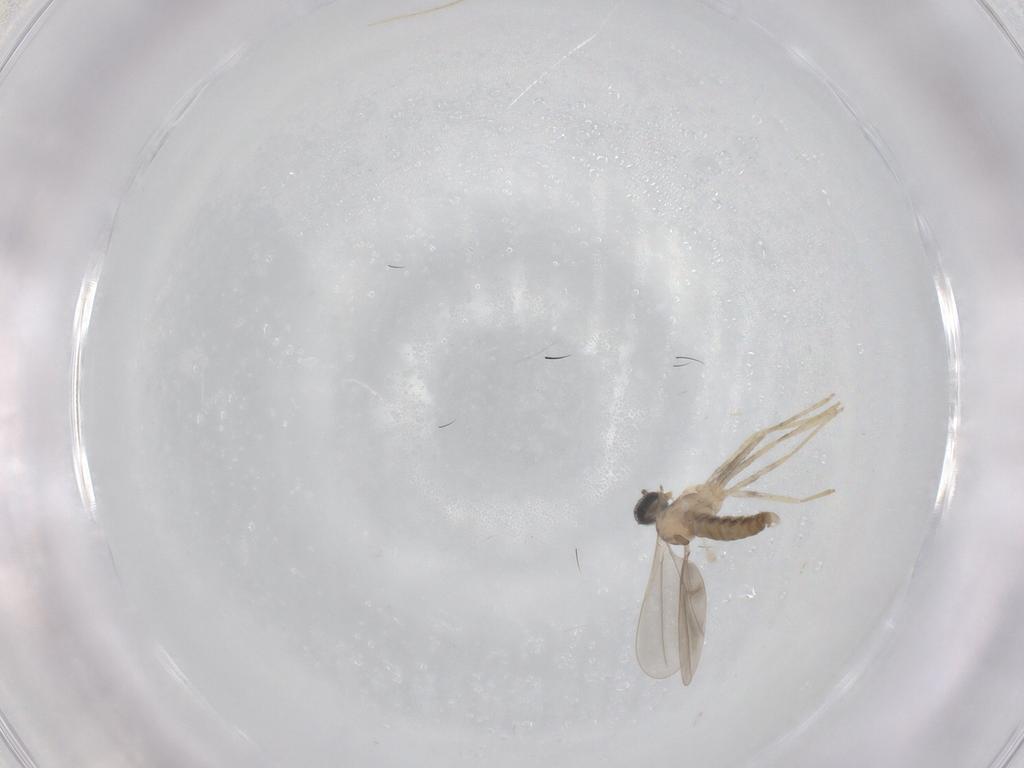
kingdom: Animalia
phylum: Arthropoda
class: Insecta
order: Diptera
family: Cecidomyiidae
